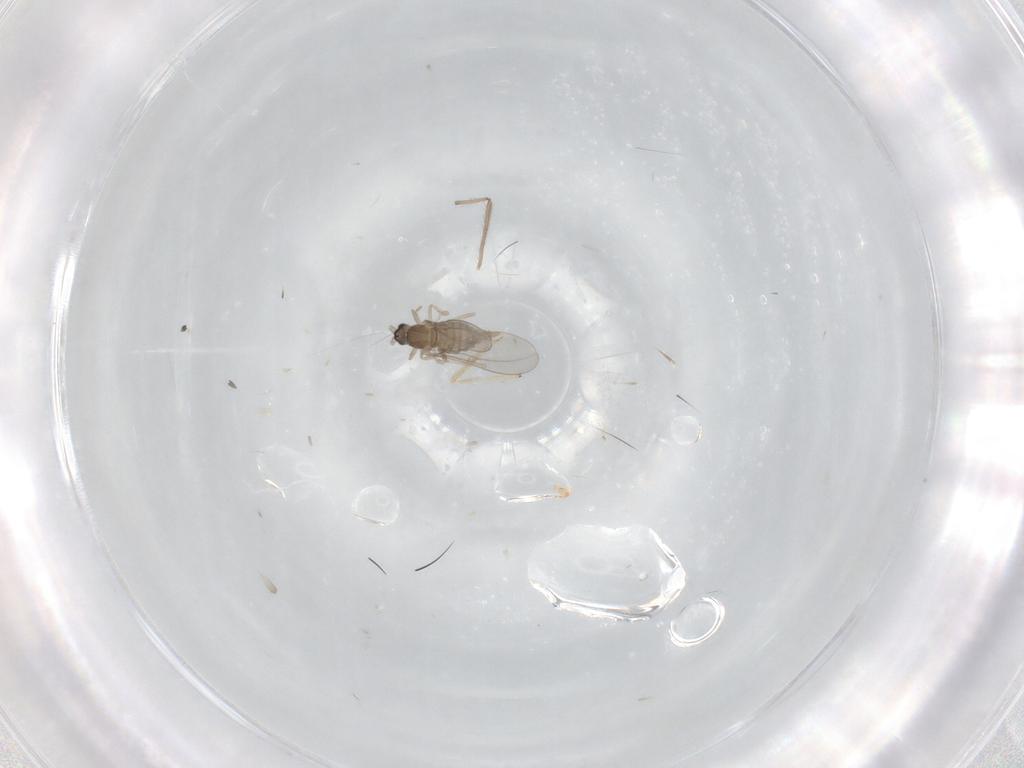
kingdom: Animalia
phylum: Arthropoda
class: Insecta
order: Diptera
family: Chironomidae
